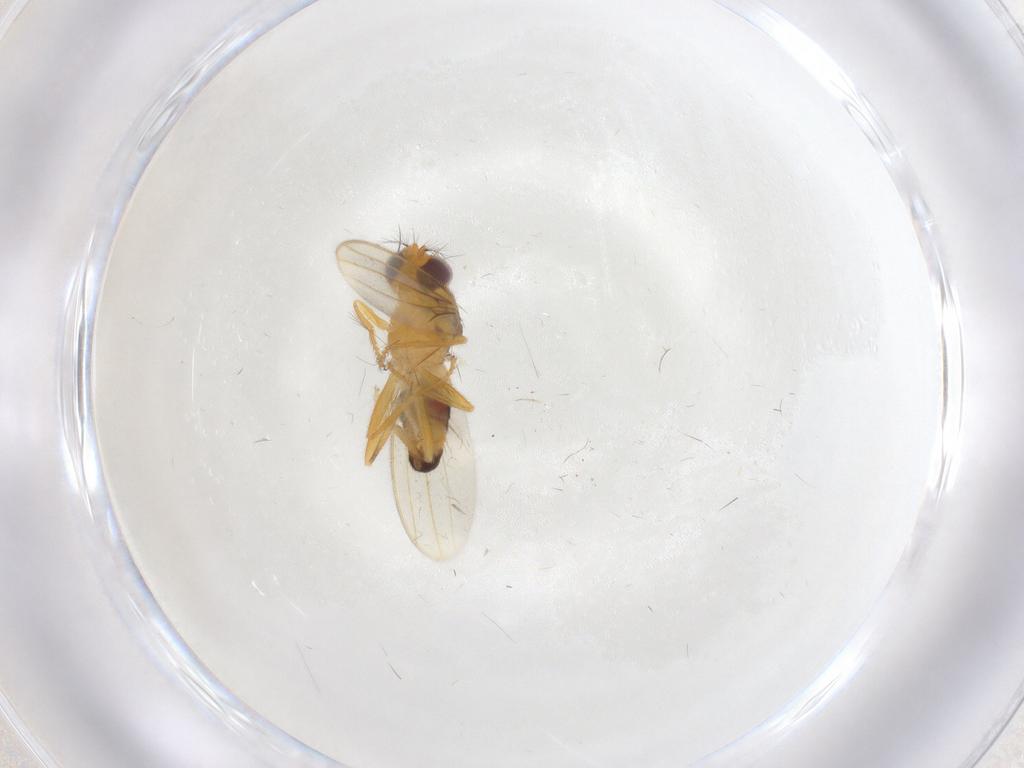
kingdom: Animalia
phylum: Arthropoda
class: Insecta
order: Diptera
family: Periscelididae
